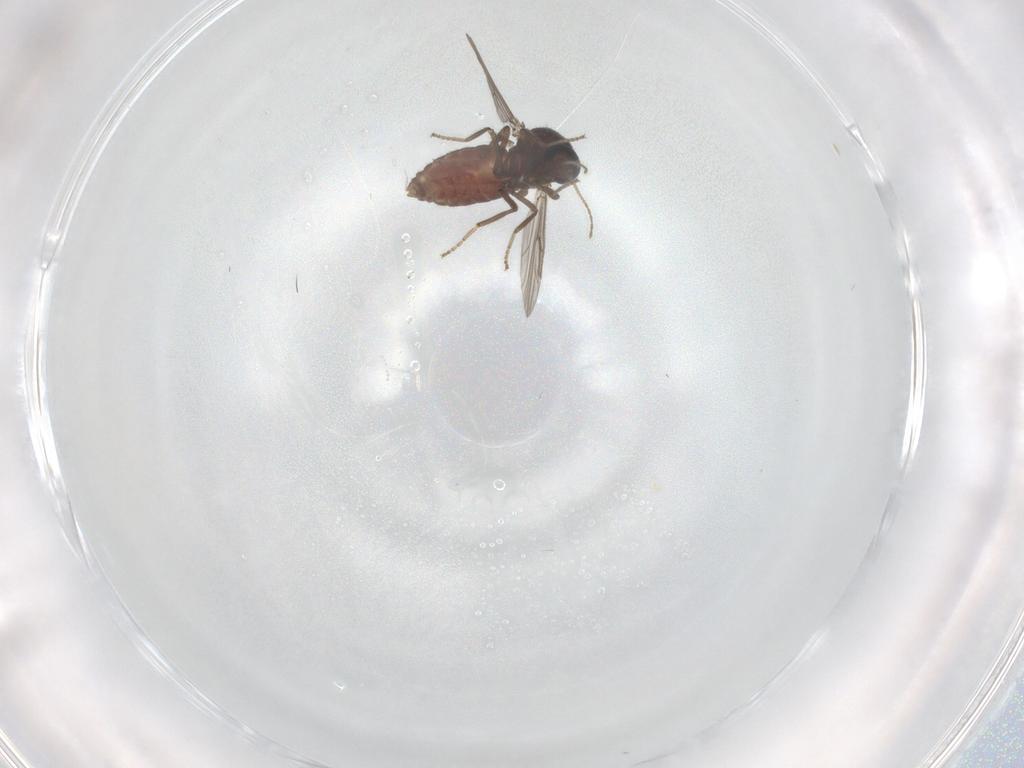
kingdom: Animalia
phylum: Arthropoda
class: Insecta
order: Diptera
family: Ceratopogonidae
